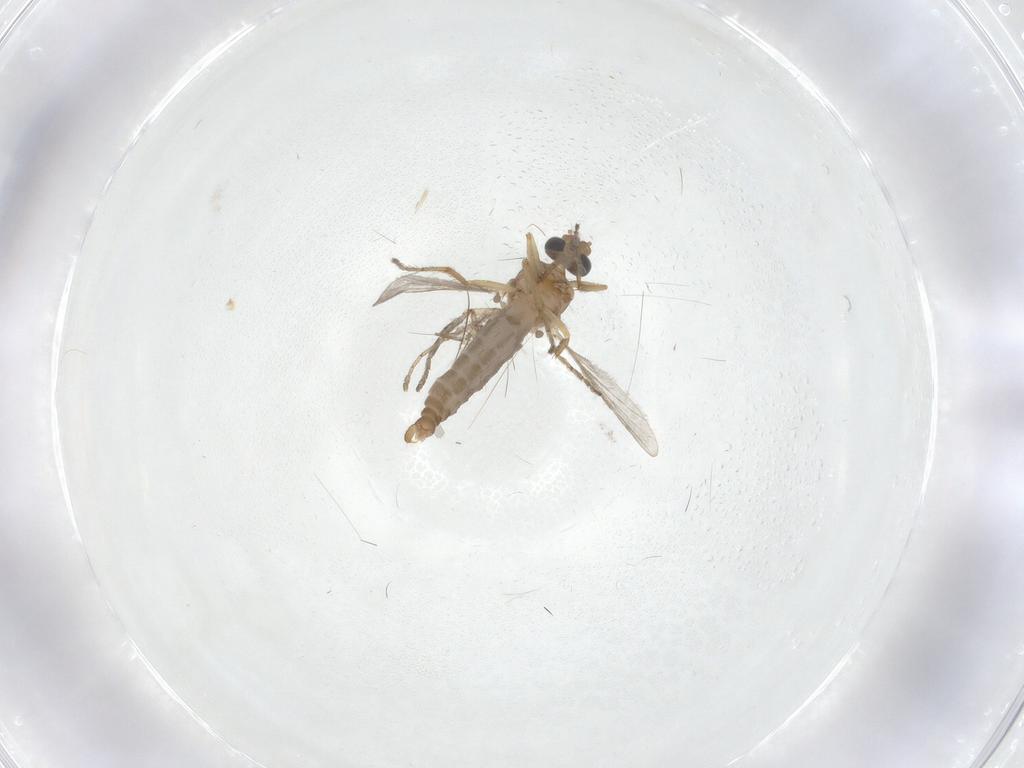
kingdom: Animalia
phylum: Arthropoda
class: Insecta
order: Diptera
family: Ceratopogonidae
